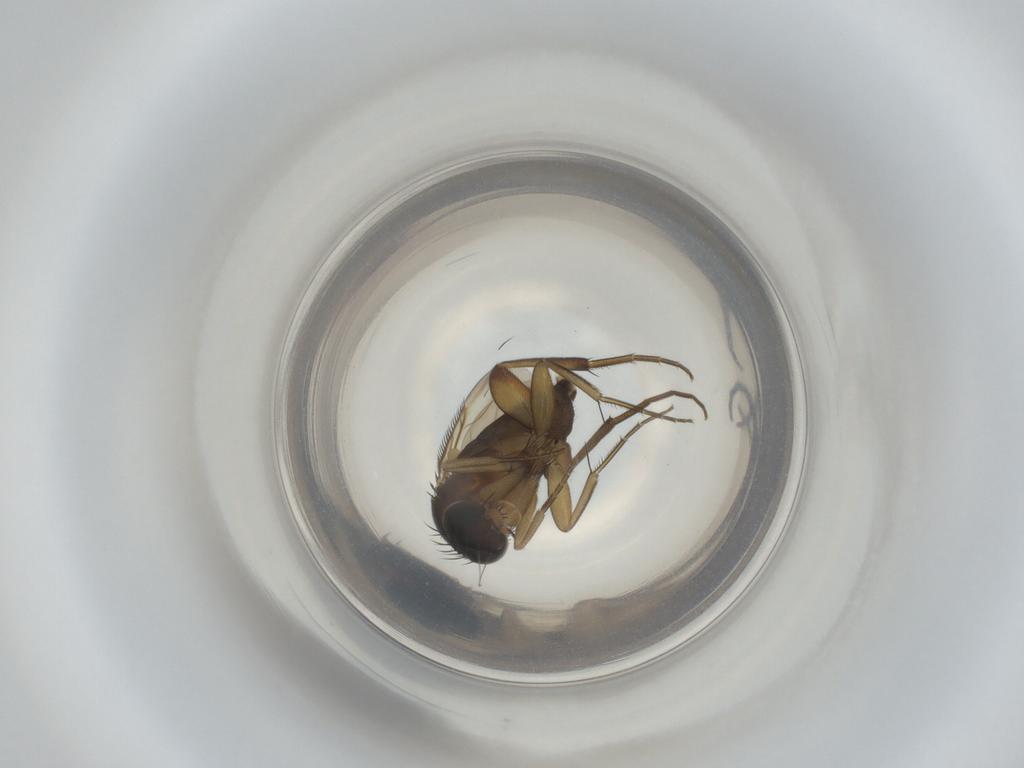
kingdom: Animalia
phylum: Arthropoda
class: Insecta
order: Diptera
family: Phoridae
